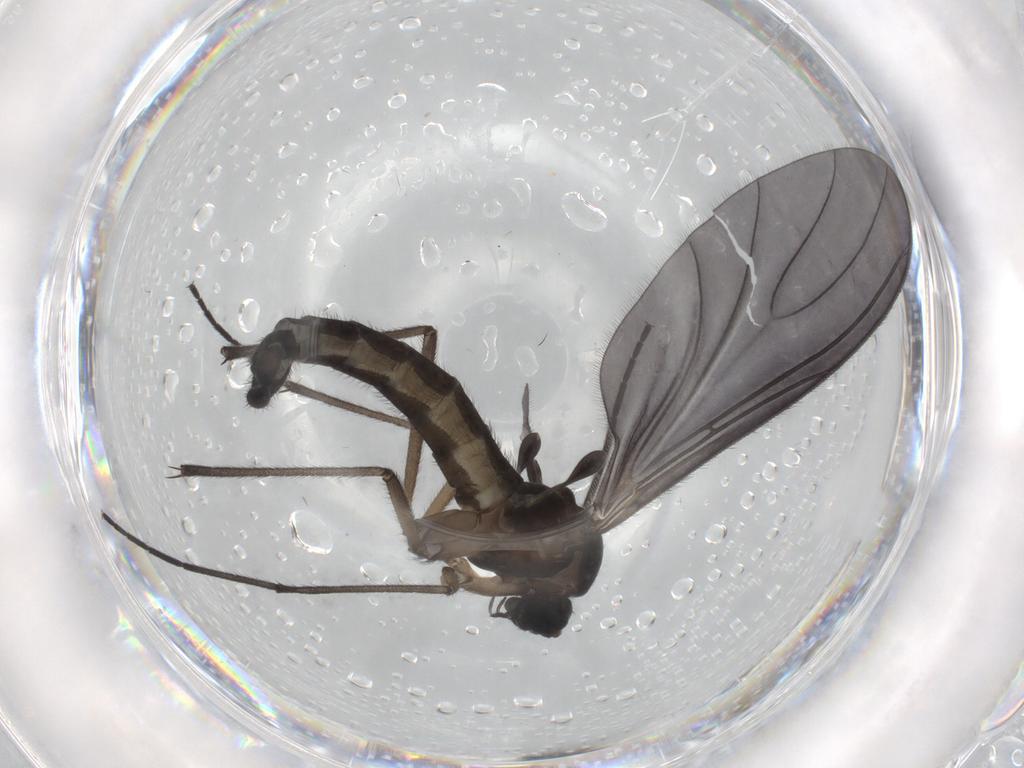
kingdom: Animalia
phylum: Arthropoda
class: Insecta
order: Diptera
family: Sciaridae
